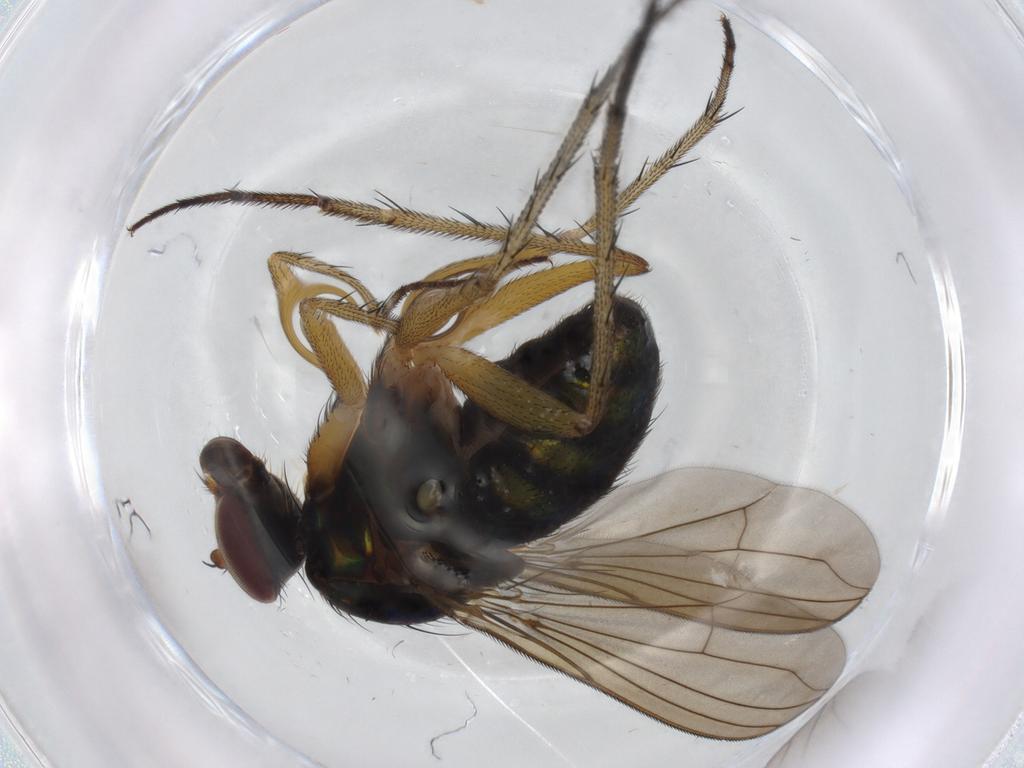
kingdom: Animalia
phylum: Arthropoda
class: Insecta
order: Diptera
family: Dolichopodidae
